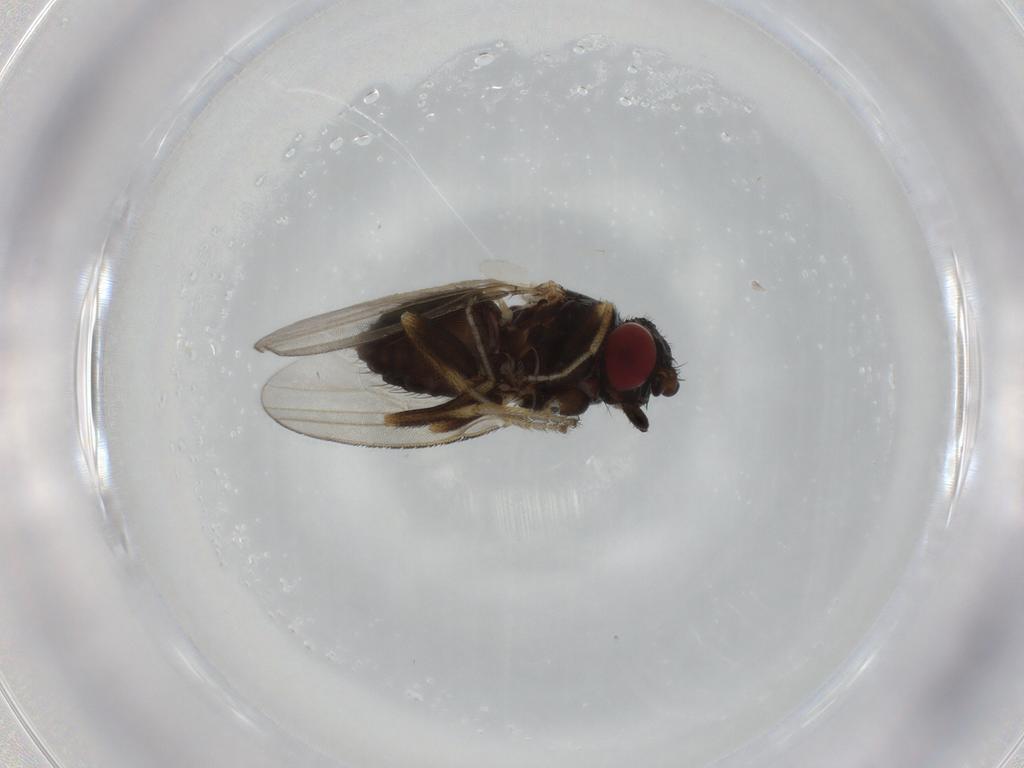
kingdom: Animalia
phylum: Arthropoda
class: Insecta
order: Diptera
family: Milichiidae
